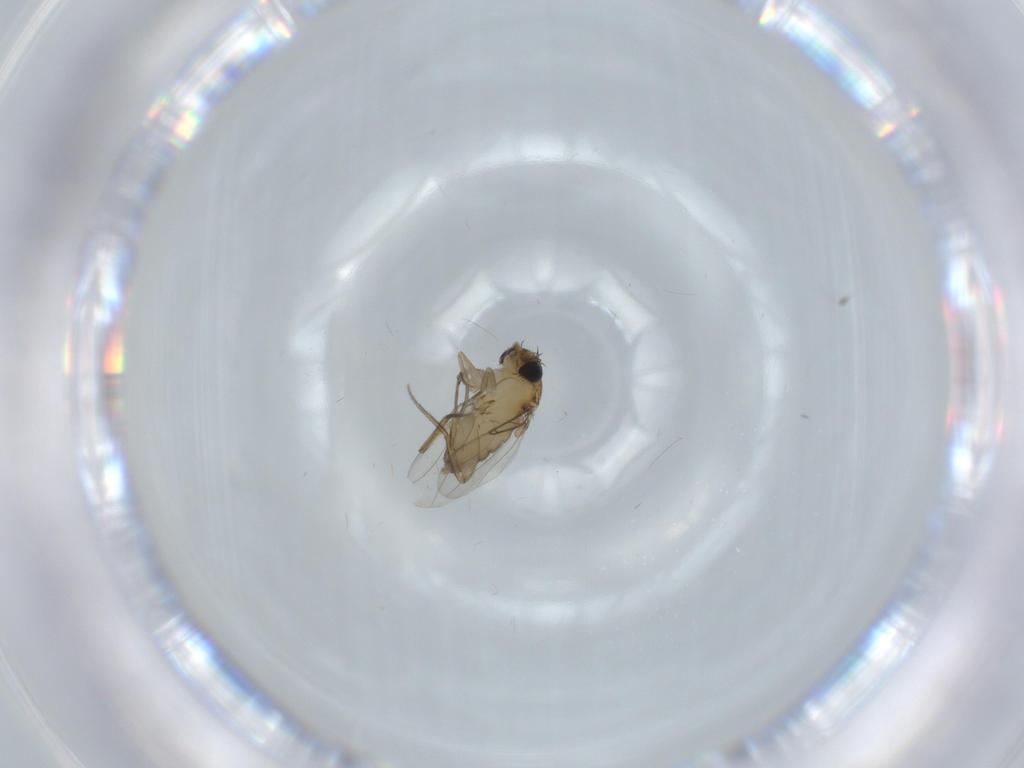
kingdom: Animalia
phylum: Arthropoda
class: Insecta
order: Diptera
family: Phoridae
